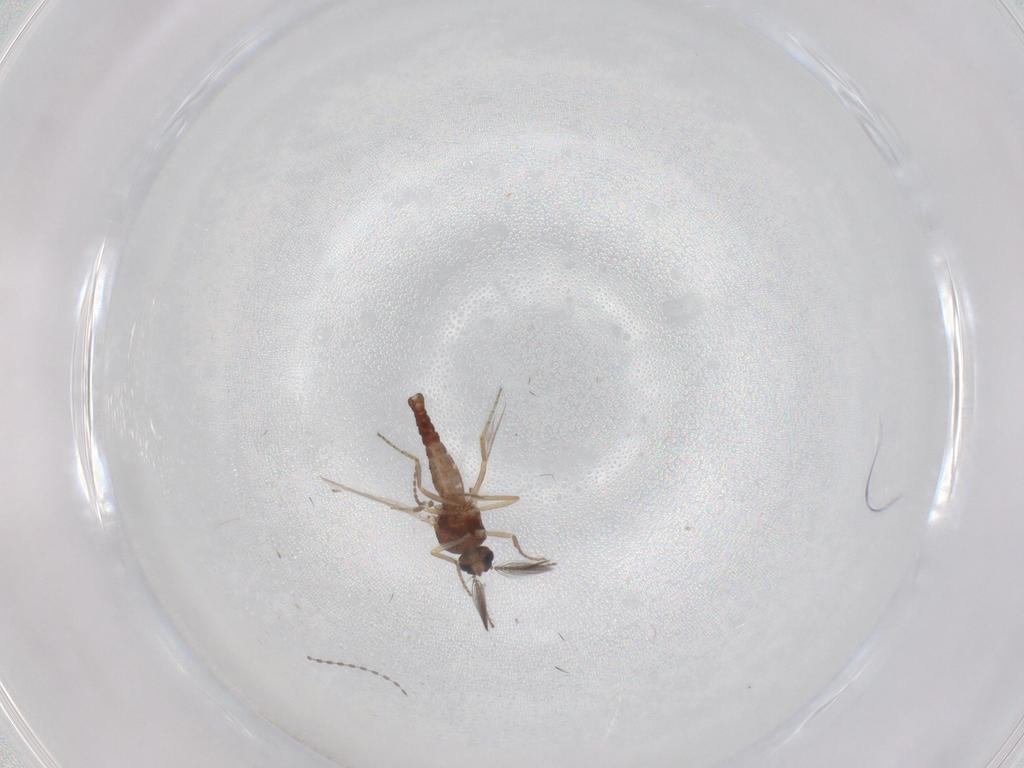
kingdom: Animalia
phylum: Arthropoda
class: Insecta
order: Diptera
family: Ceratopogonidae
